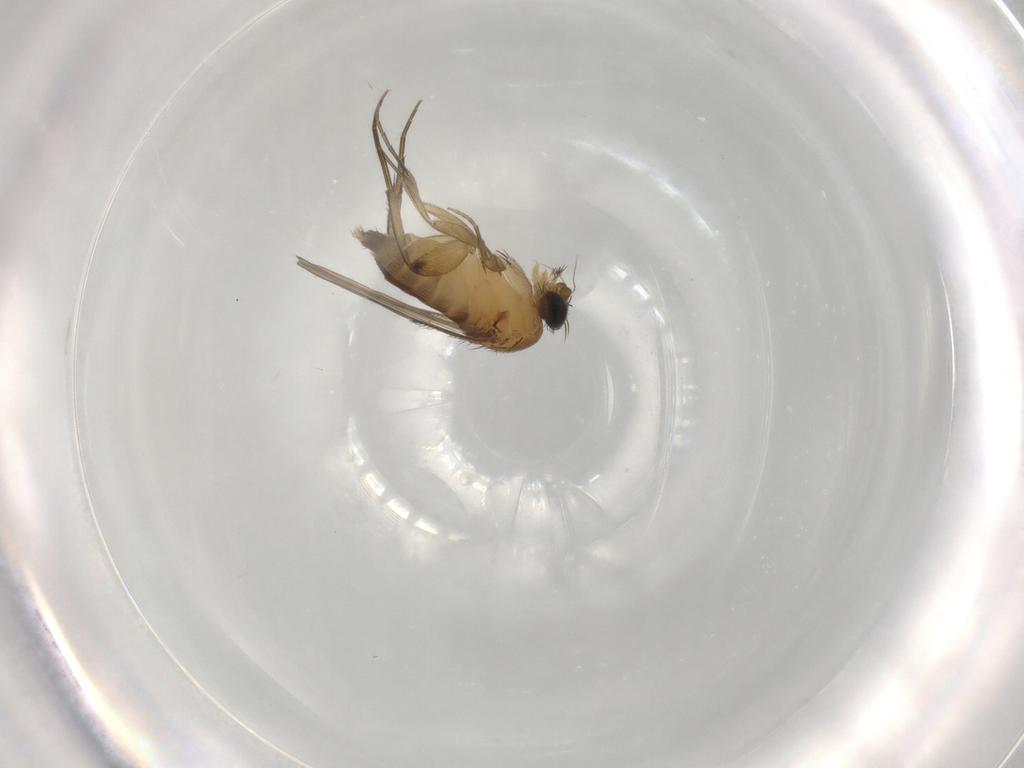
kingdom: Animalia
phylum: Arthropoda
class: Insecta
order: Diptera
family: Phoridae
